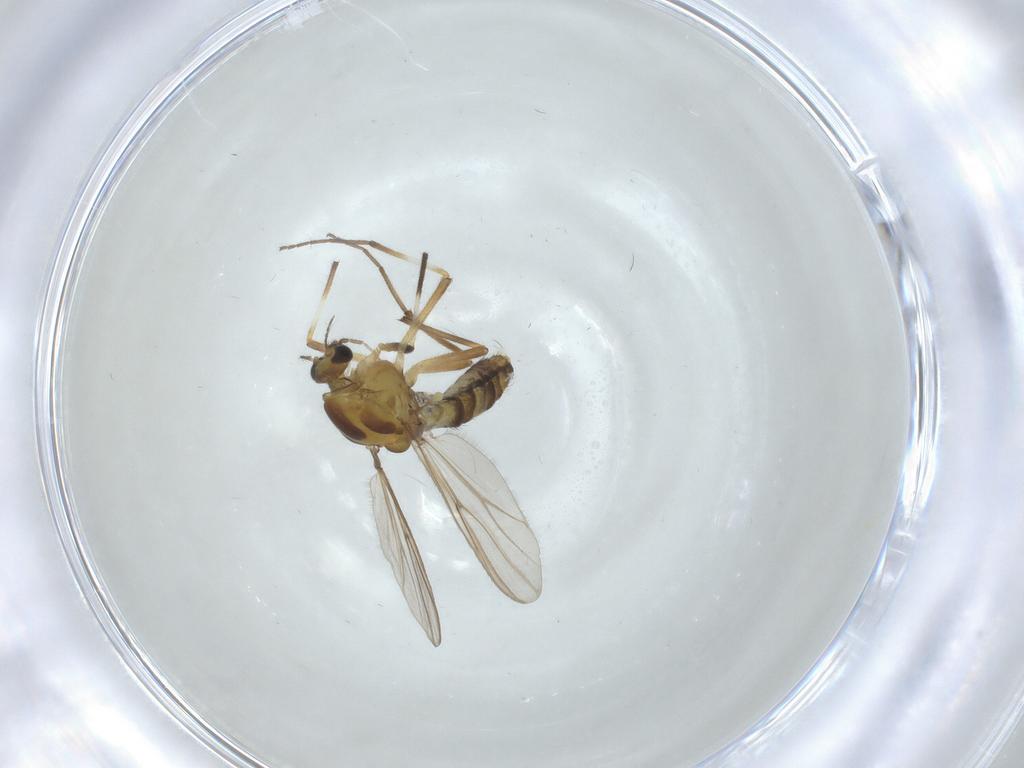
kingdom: Animalia
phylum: Arthropoda
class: Insecta
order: Diptera
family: Chironomidae
